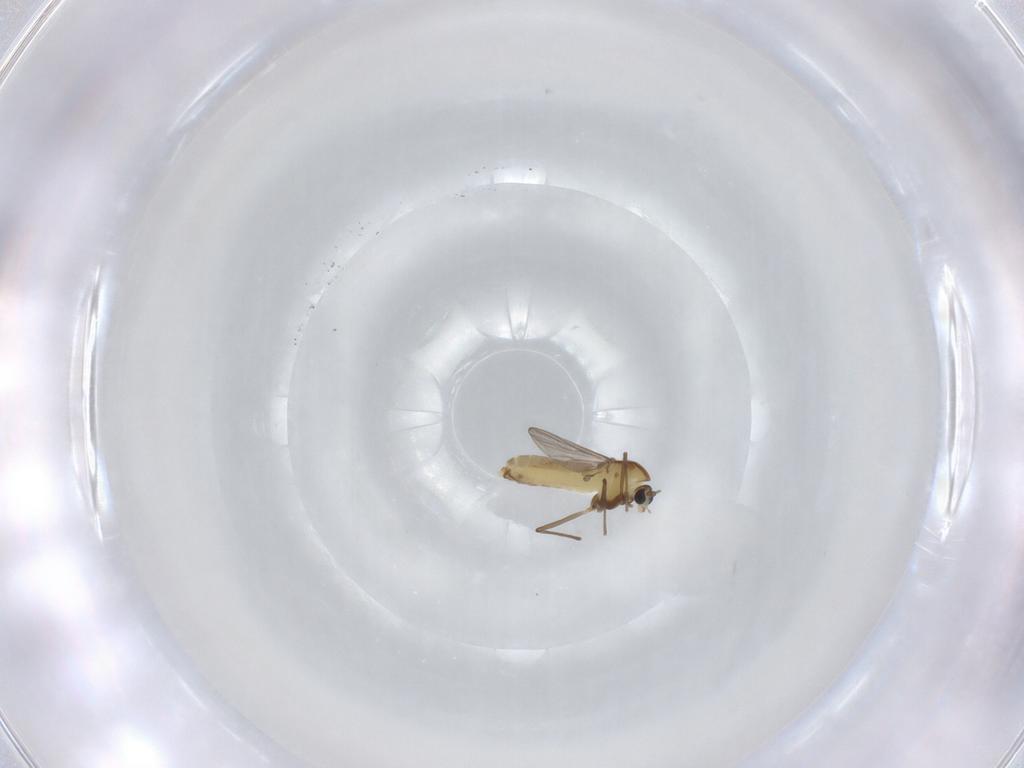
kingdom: Animalia
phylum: Arthropoda
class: Insecta
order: Diptera
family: Chironomidae
